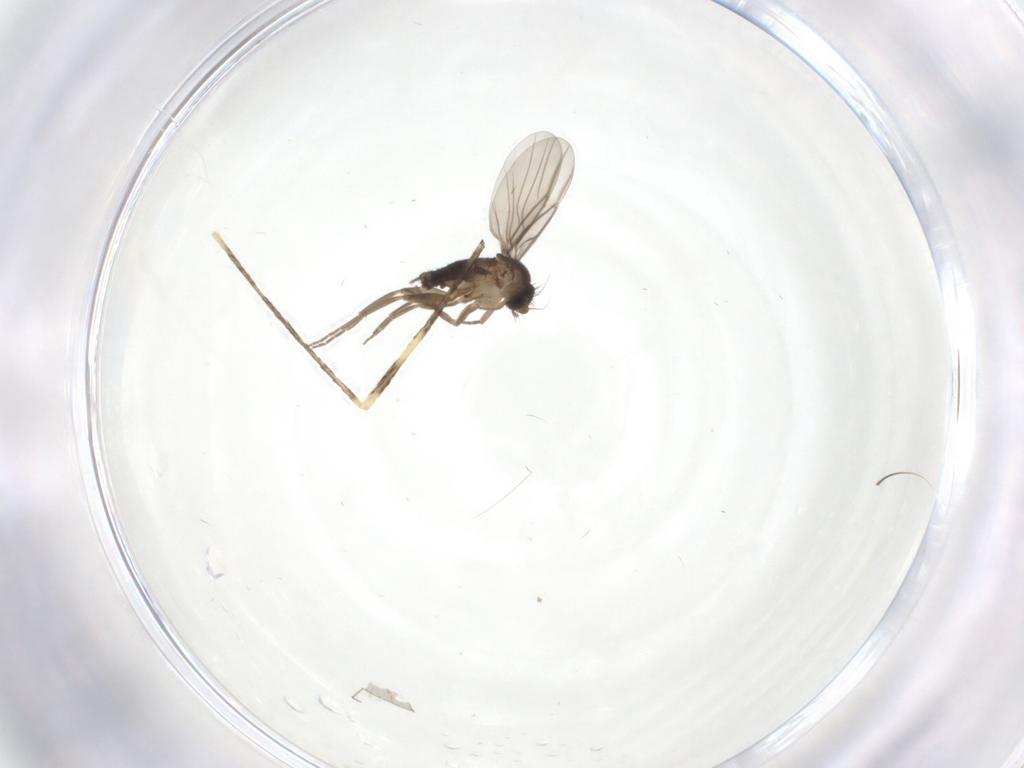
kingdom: Animalia
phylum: Arthropoda
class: Insecta
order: Diptera
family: Limoniidae
